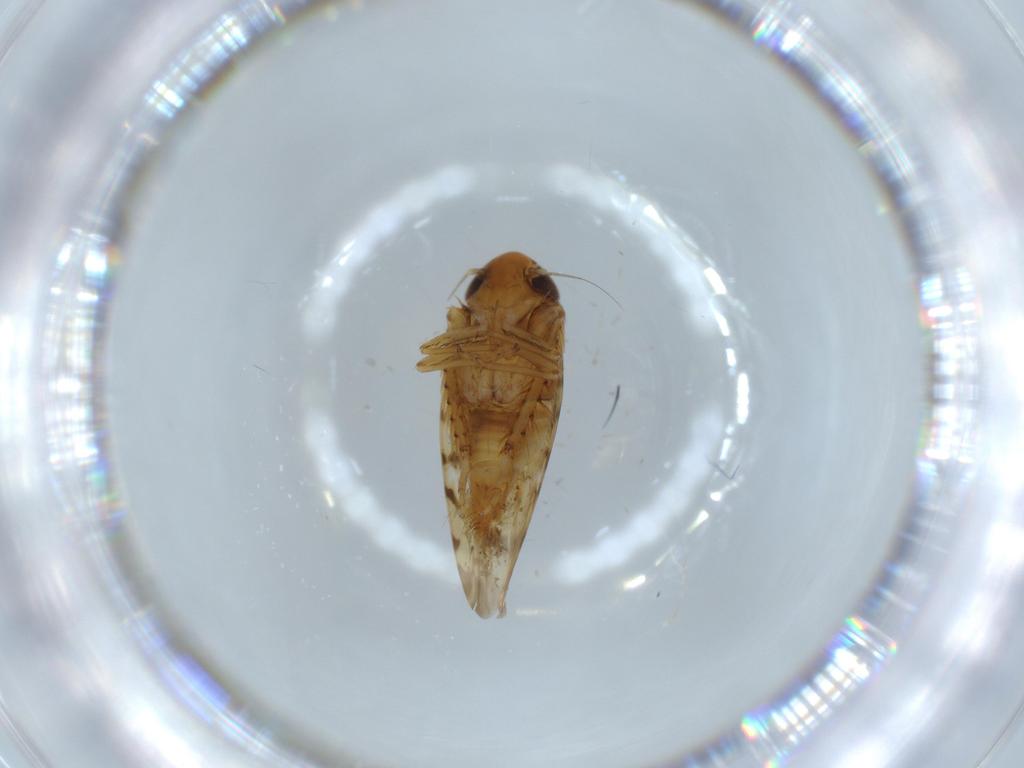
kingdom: Animalia
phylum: Arthropoda
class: Insecta
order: Hemiptera
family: Cicadellidae
